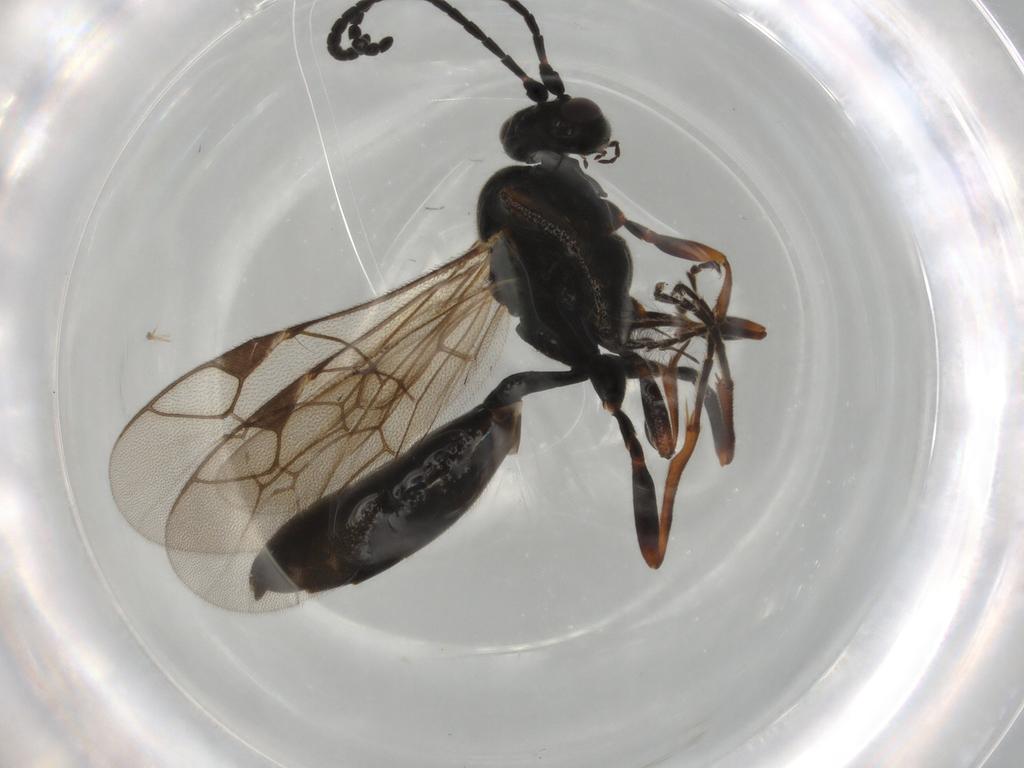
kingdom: Animalia
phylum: Arthropoda
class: Insecta
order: Hymenoptera
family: Ichneumonidae
